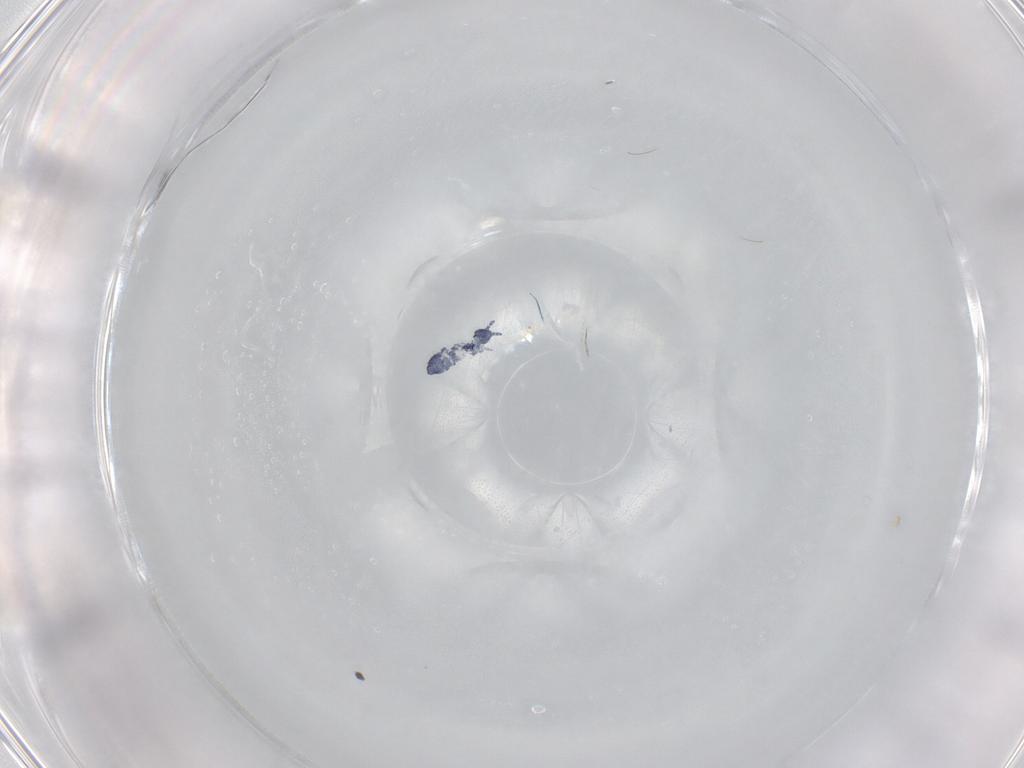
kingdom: Animalia
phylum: Arthropoda
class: Collembola
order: Poduromorpha
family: Hypogastruridae
